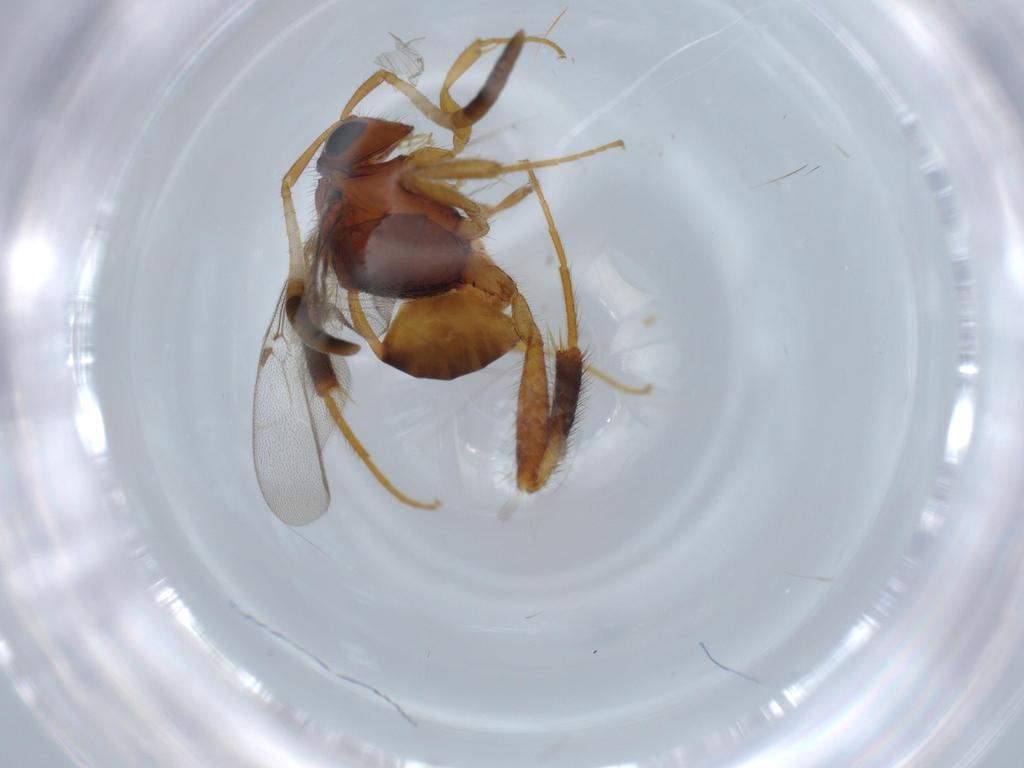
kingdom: Animalia
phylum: Arthropoda
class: Insecta
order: Hymenoptera
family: Evaniidae
